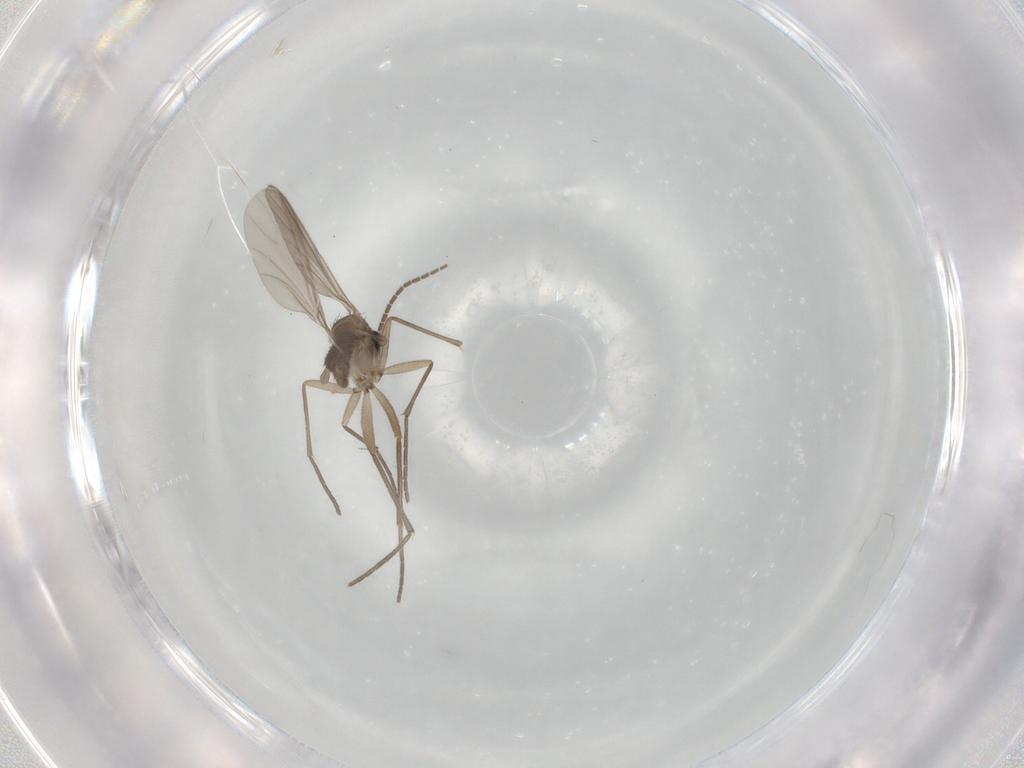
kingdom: Animalia
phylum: Arthropoda
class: Insecta
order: Diptera
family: Sciaridae
